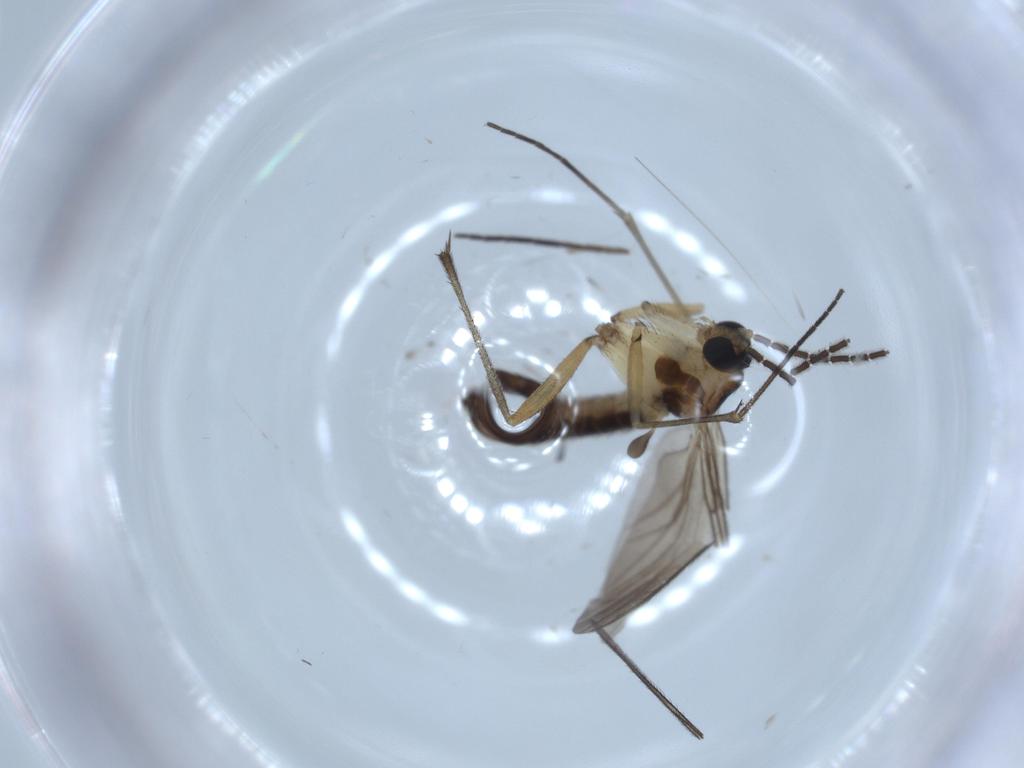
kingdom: Animalia
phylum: Arthropoda
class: Insecta
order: Diptera
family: Sciaridae
